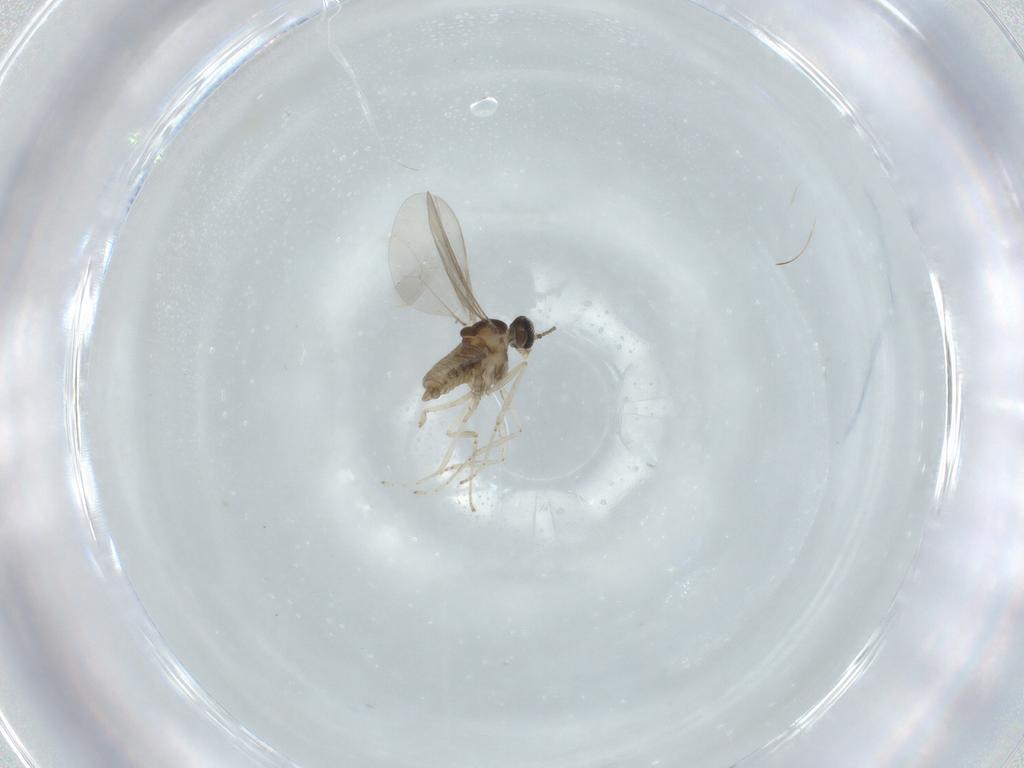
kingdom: Animalia
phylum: Arthropoda
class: Insecta
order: Diptera
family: Cecidomyiidae
